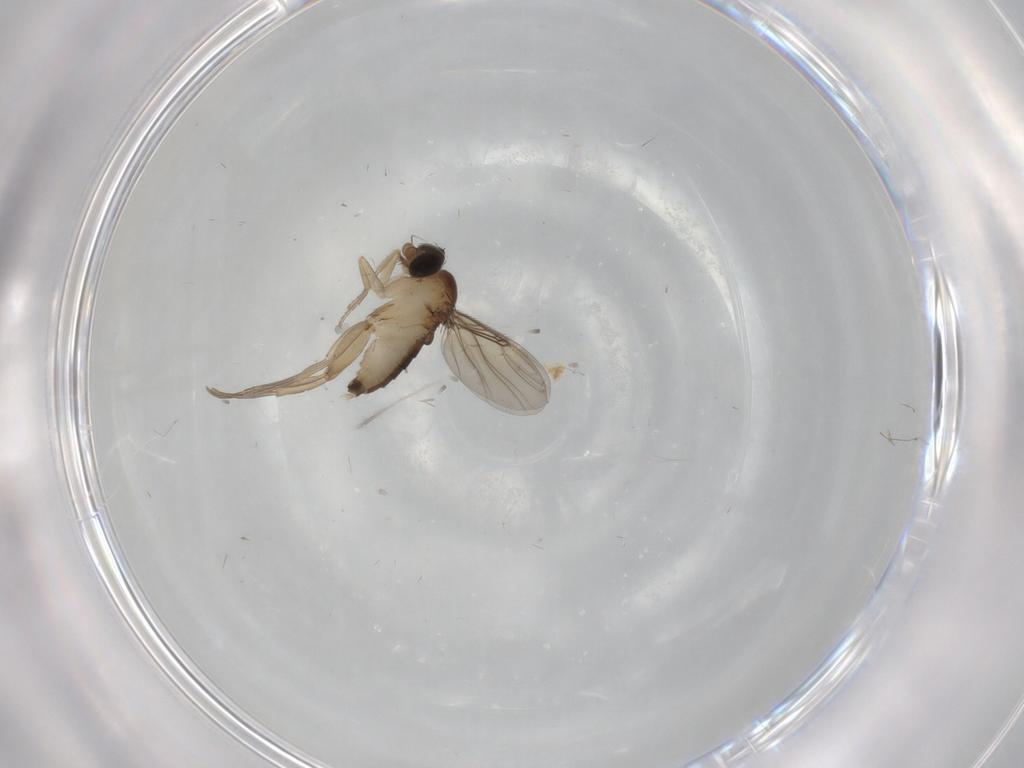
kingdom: Animalia
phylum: Arthropoda
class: Insecta
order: Diptera
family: Phoridae
